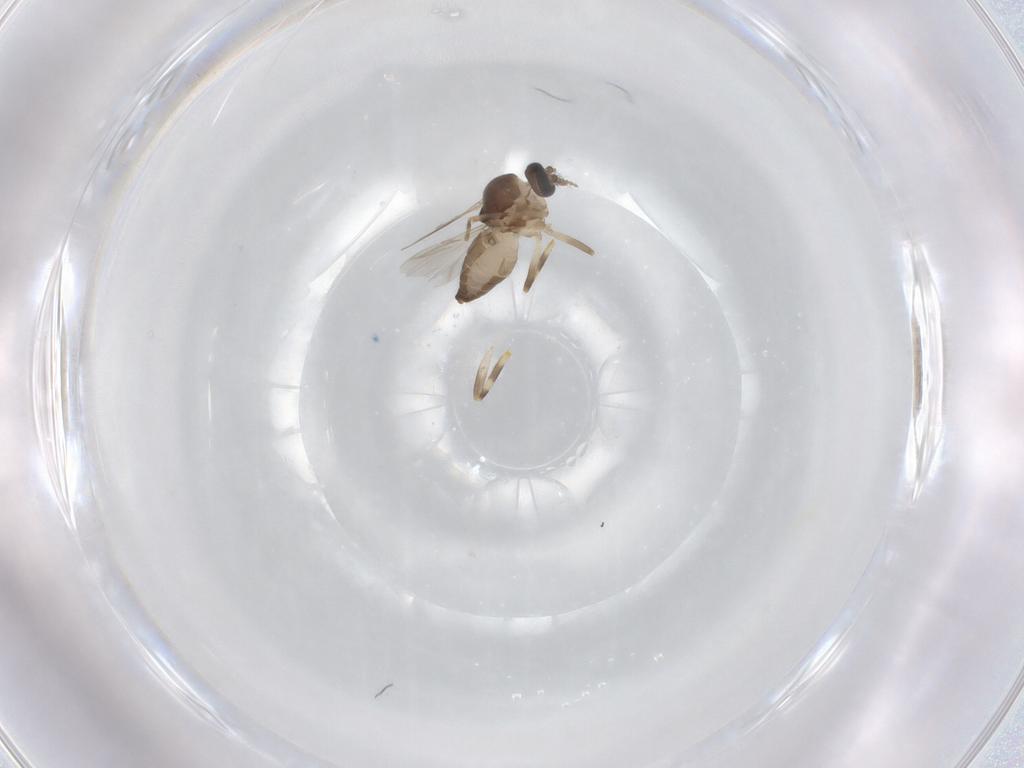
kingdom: Animalia
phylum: Arthropoda
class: Insecta
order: Diptera
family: Ceratopogonidae
